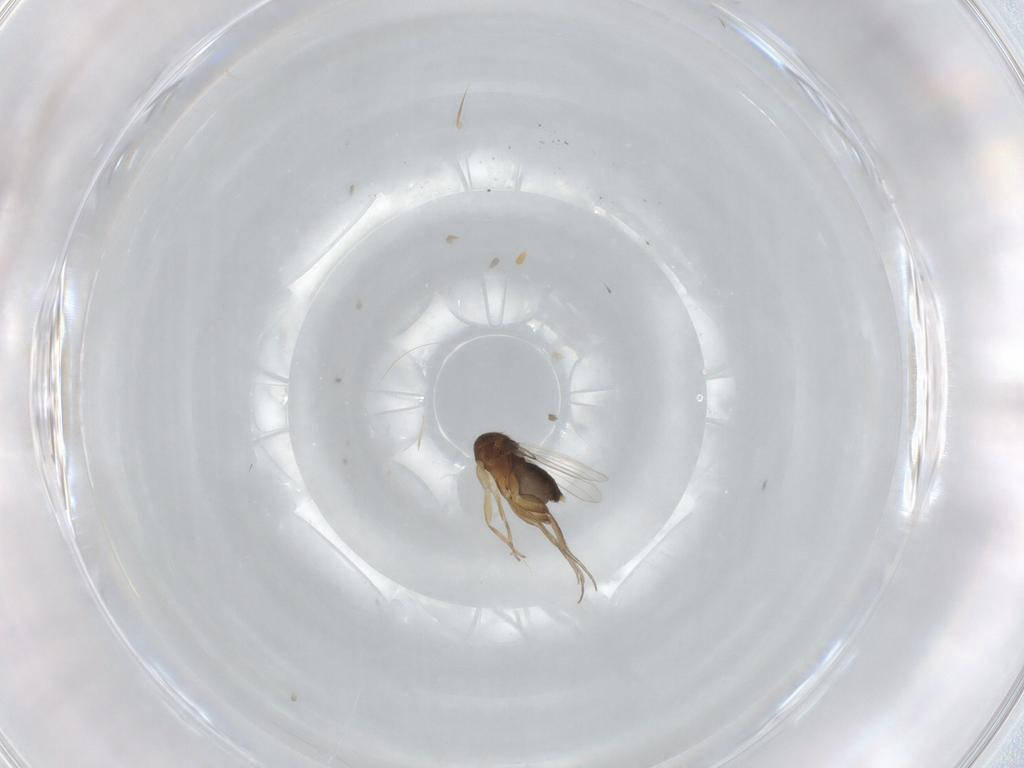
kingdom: Animalia
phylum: Arthropoda
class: Insecta
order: Diptera
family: Phoridae
